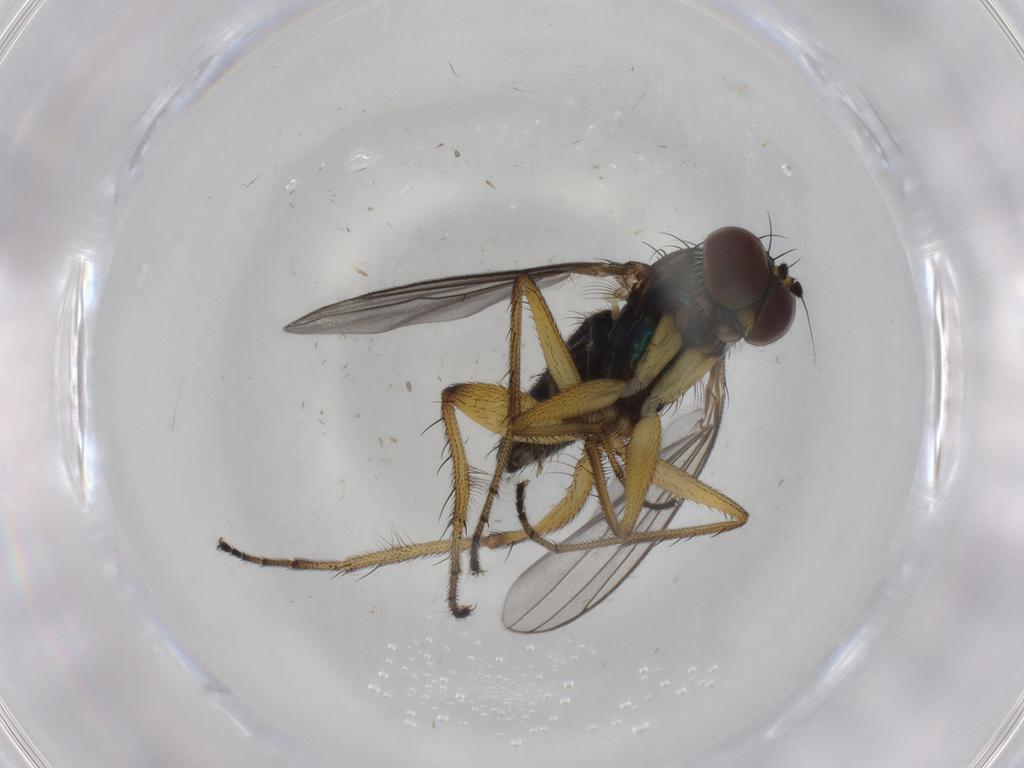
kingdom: Animalia
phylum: Arthropoda
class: Insecta
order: Diptera
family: Dolichopodidae
